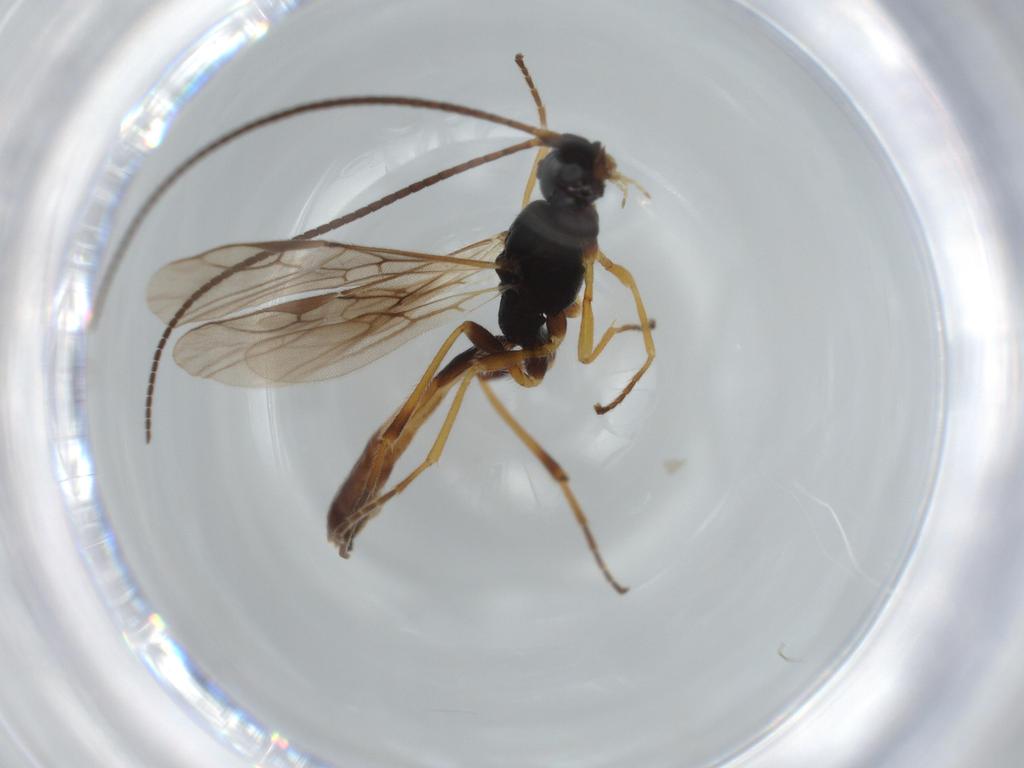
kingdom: Animalia
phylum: Arthropoda
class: Insecta
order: Hymenoptera
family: Braconidae
